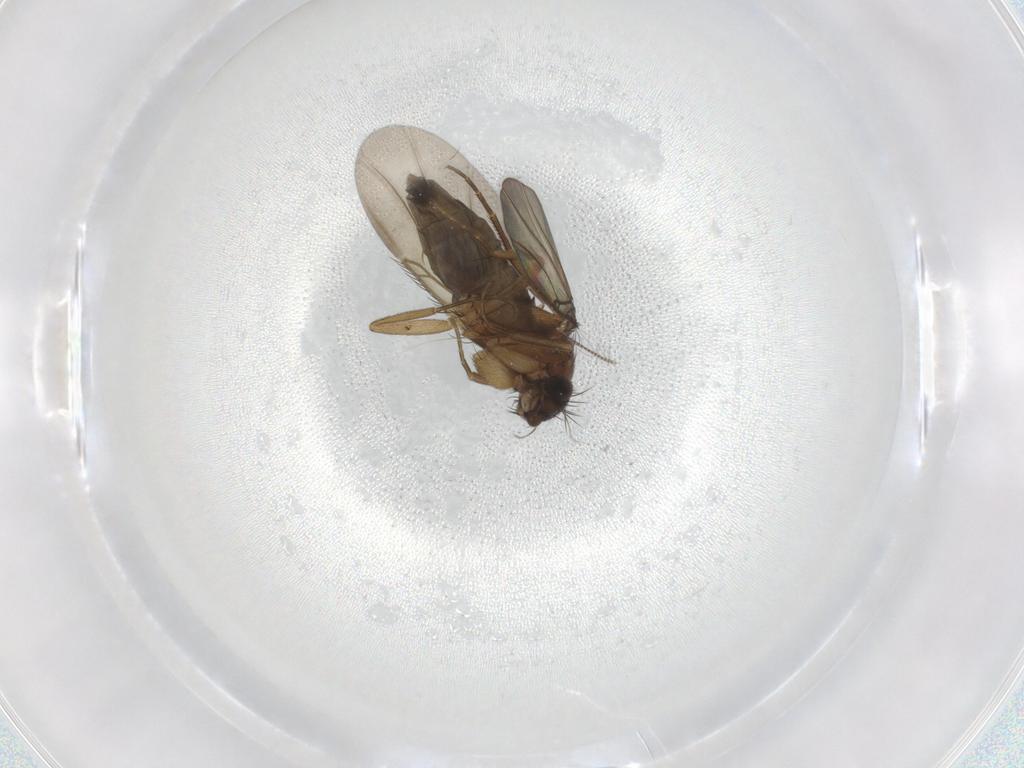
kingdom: Animalia
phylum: Arthropoda
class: Insecta
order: Diptera
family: Phoridae
